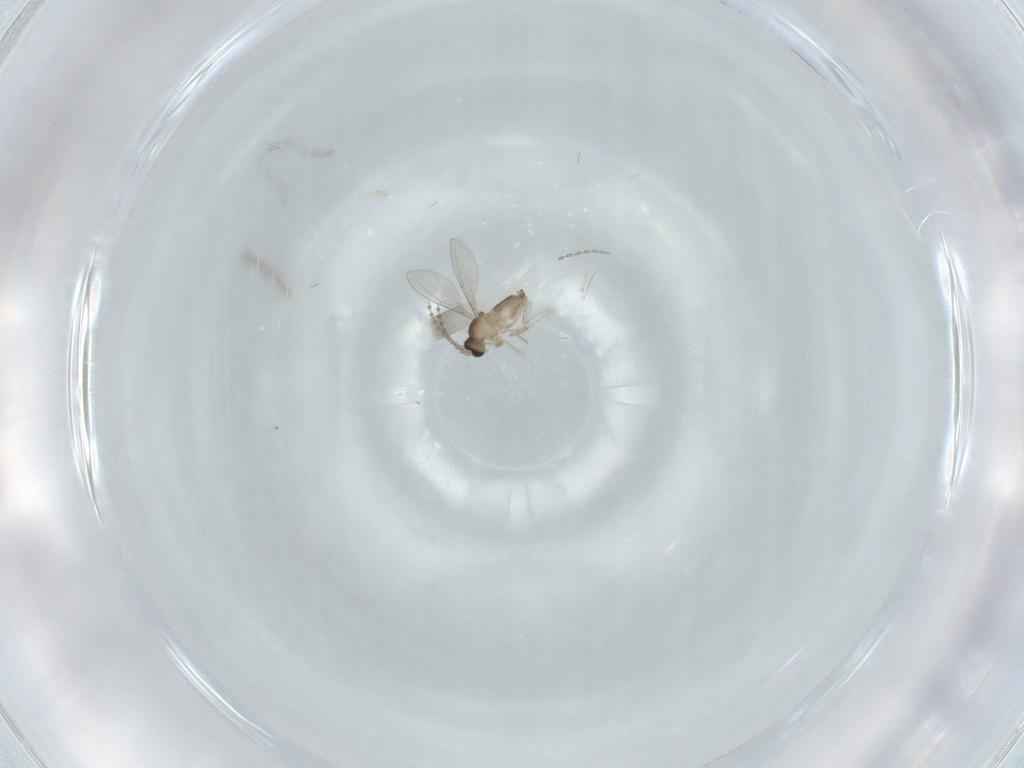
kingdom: Animalia
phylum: Arthropoda
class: Insecta
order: Diptera
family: Cecidomyiidae
